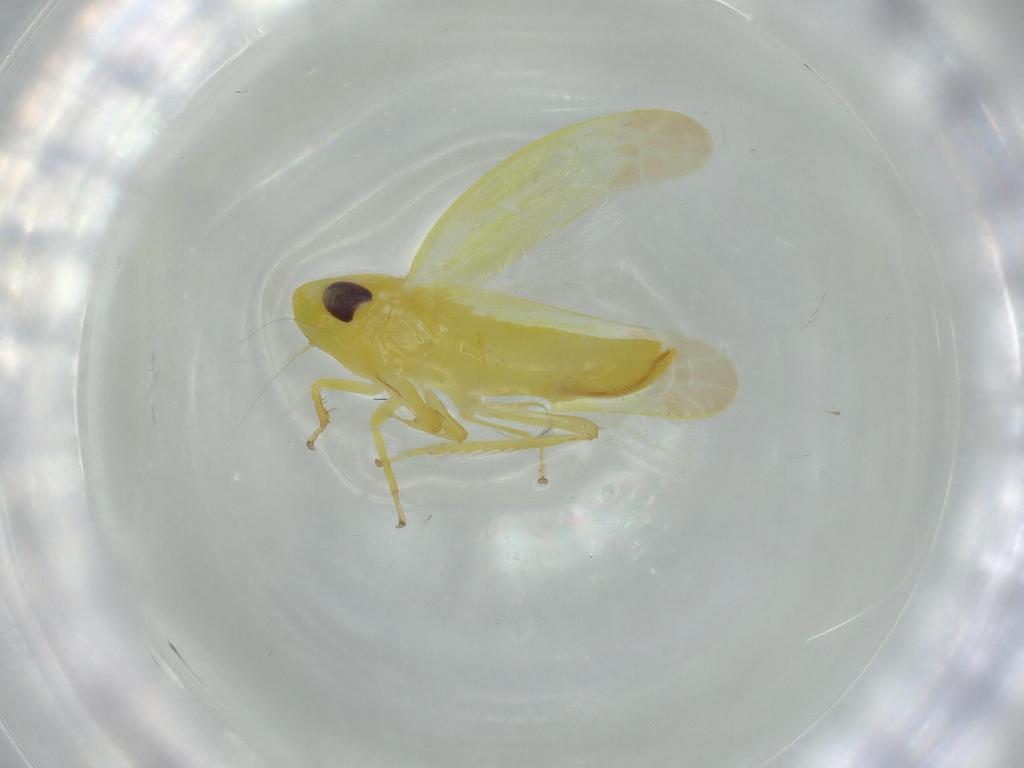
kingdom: Animalia
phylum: Arthropoda
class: Insecta
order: Hemiptera
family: Cicadellidae
